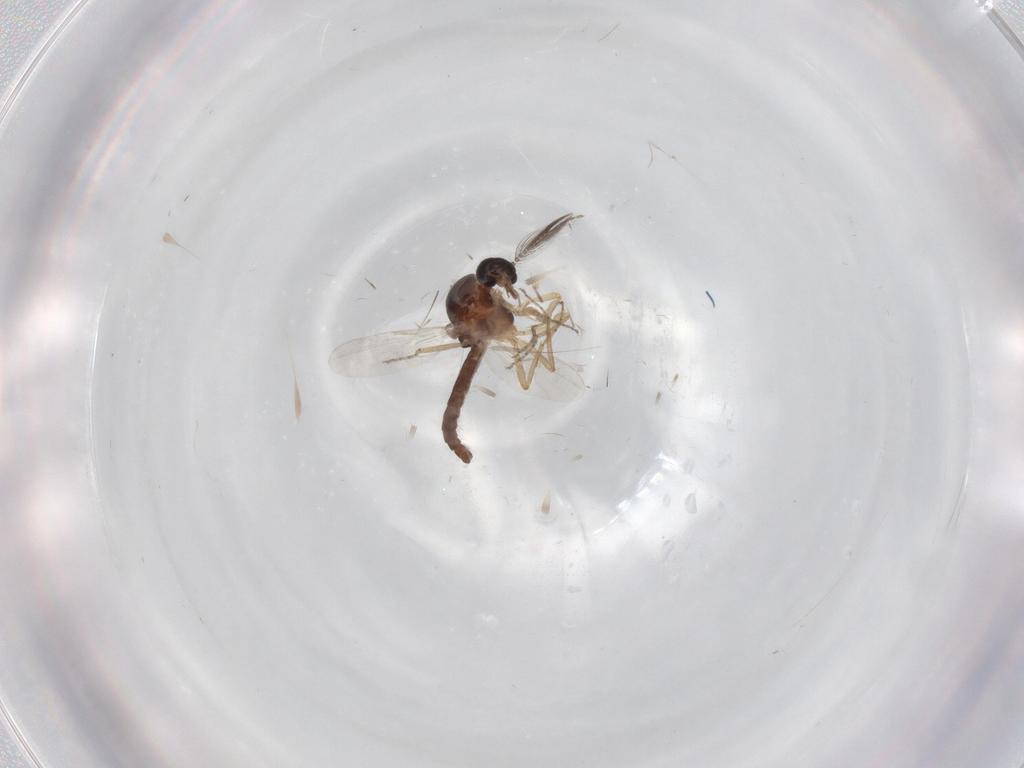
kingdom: Animalia
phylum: Arthropoda
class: Insecta
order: Diptera
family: Ceratopogonidae
